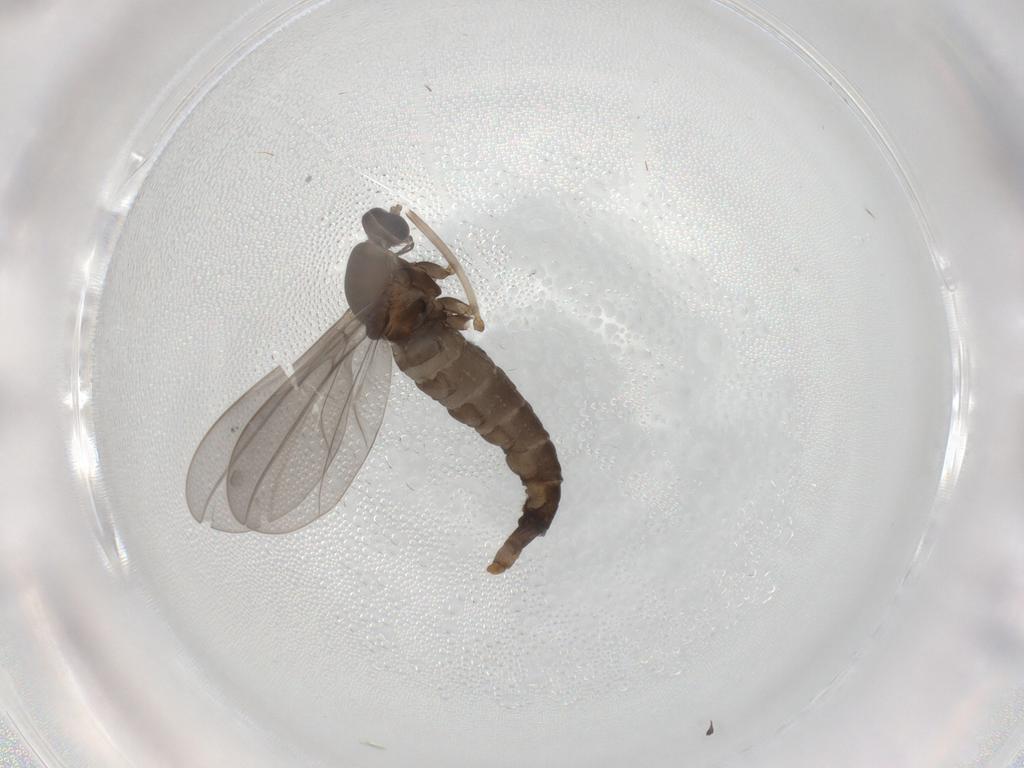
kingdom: Animalia
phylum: Arthropoda
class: Insecta
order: Diptera
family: Cecidomyiidae
